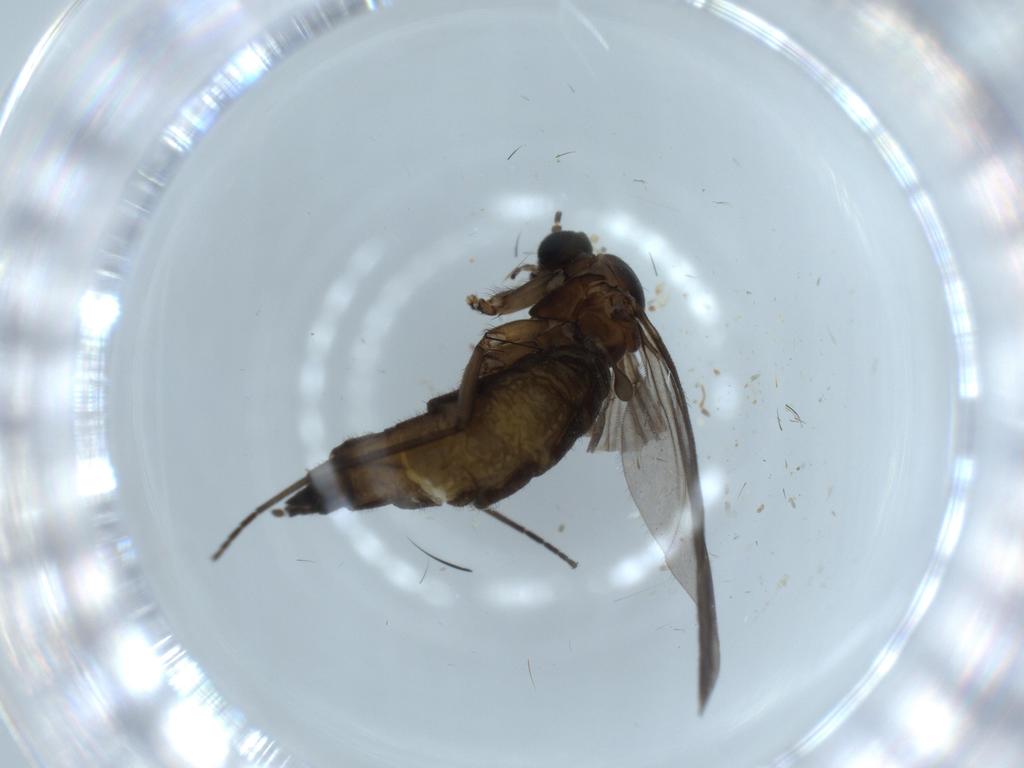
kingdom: Animalia
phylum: Arthropoda
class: Insecta
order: Diptera
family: Sciaridae
